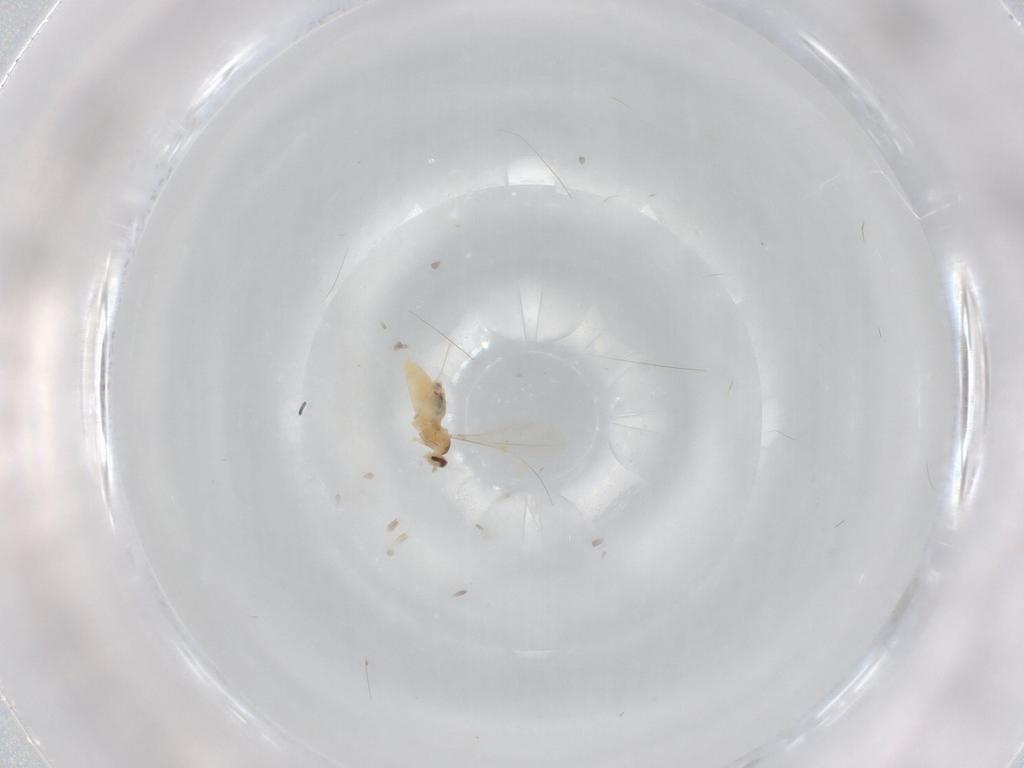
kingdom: Animalia
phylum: Arthropoda
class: Insecta
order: Diptera
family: Cecidomyiidae
